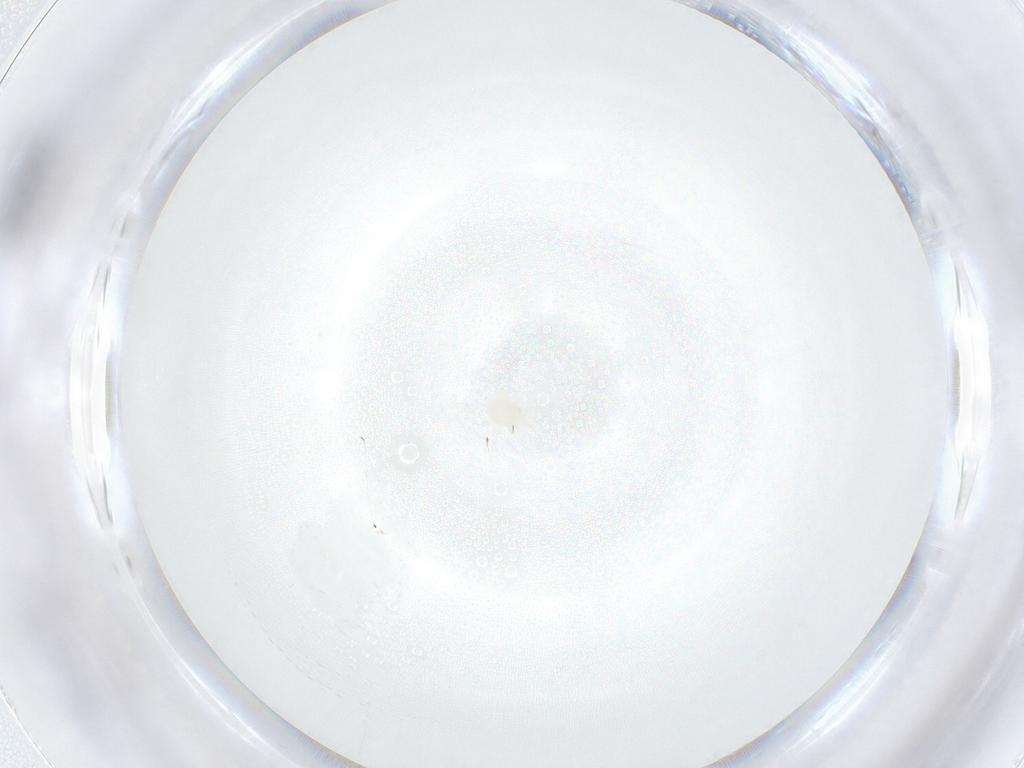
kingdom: Animalia
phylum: Arthropoda
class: Arachnida
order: Mesostigmata
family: Melicharidae
